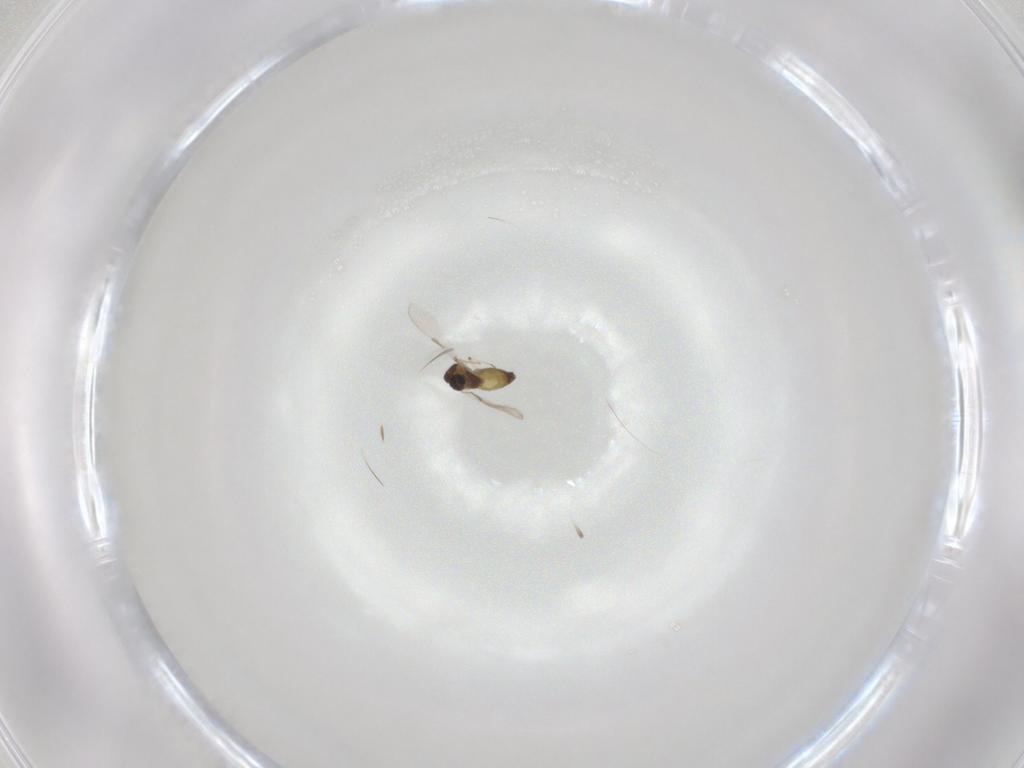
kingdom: Animalia
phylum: Arthropoda
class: Insecta
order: Diptera
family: Chironomidae
